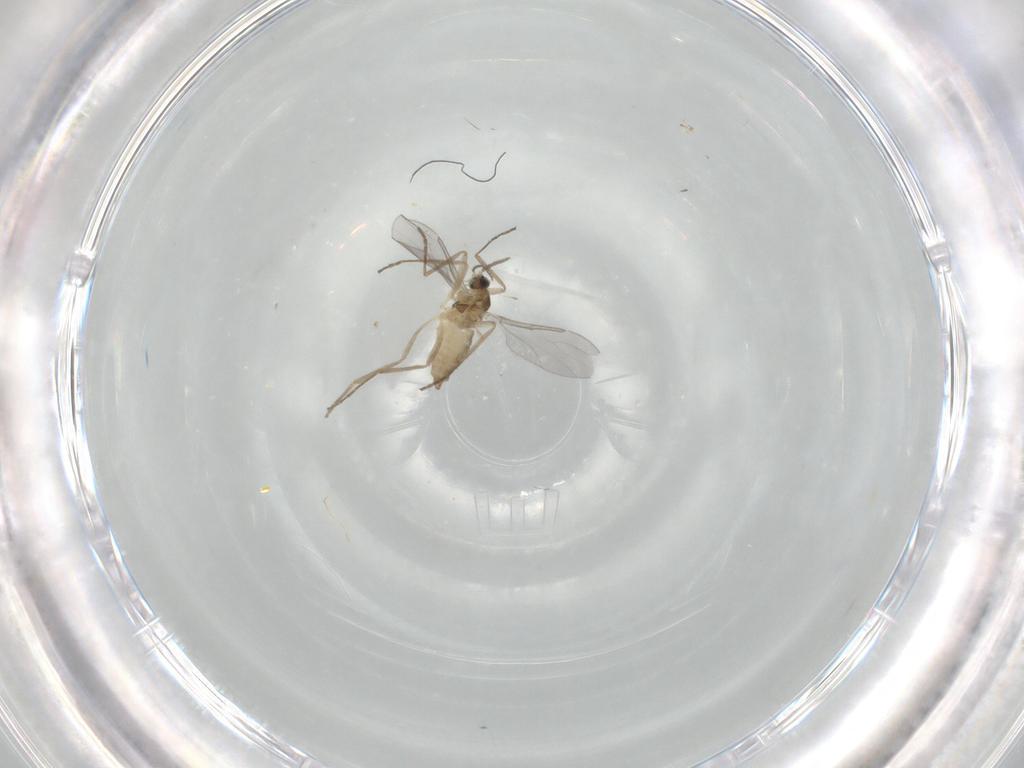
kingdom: Animalia
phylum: Arthropoda
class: Insecta
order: Diptera
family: Cecidomyiidae
